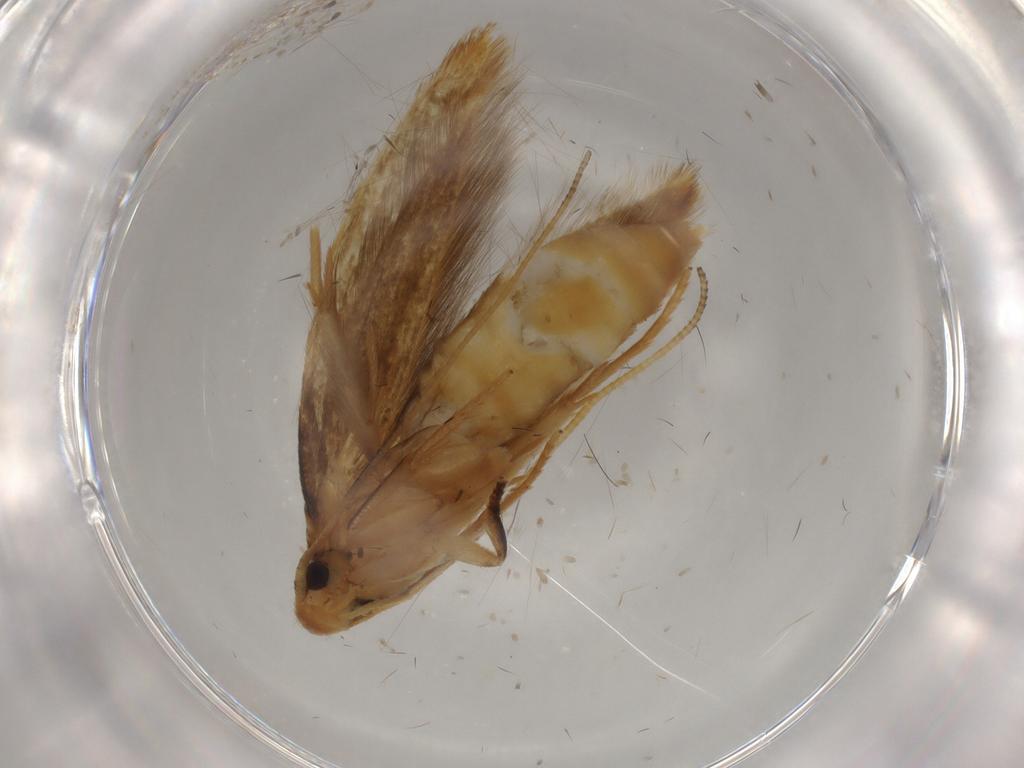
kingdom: Animalia
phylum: Arthropoda
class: Insecta
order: Lepidoptera
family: Tineidae
